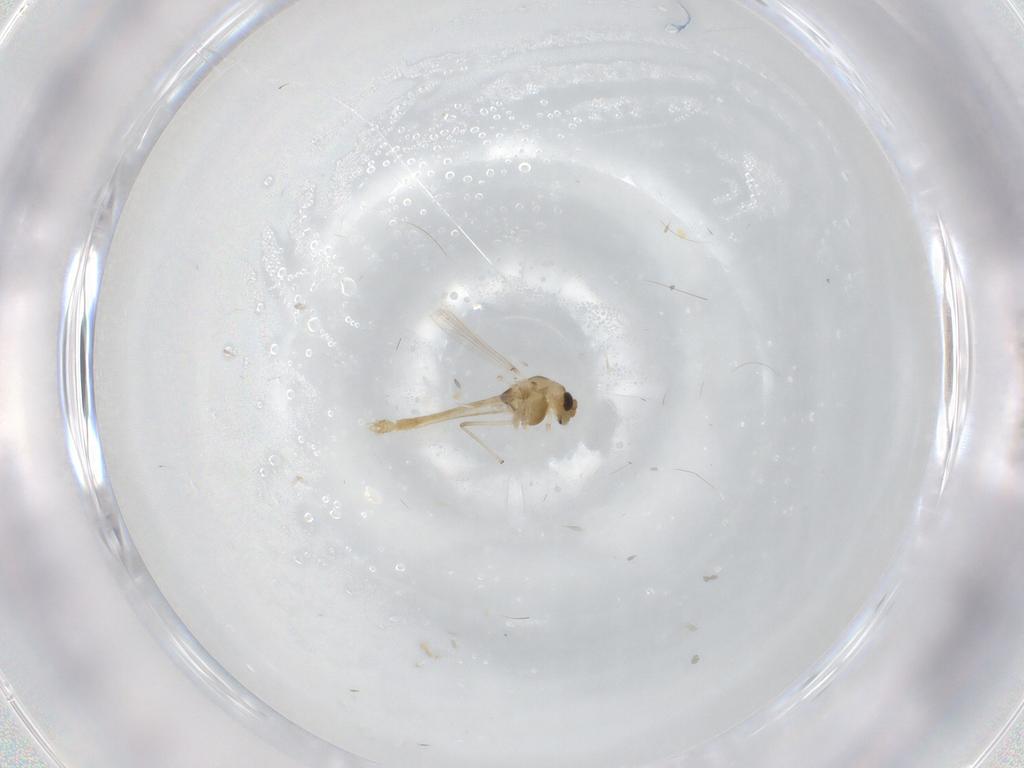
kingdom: Animalia
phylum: Arthropoda
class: Insecta
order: Diptera
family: Chironomidae
